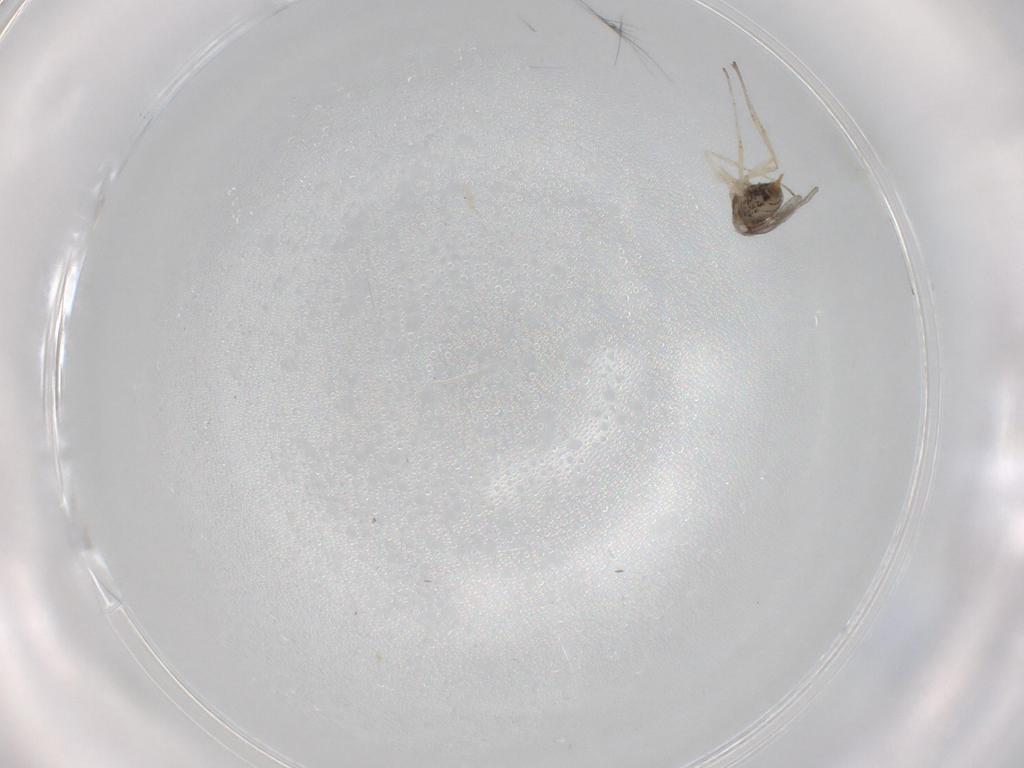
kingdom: Animalia
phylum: Arthropoda
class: Insecta
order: Diptera
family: Cecidomyiidae
